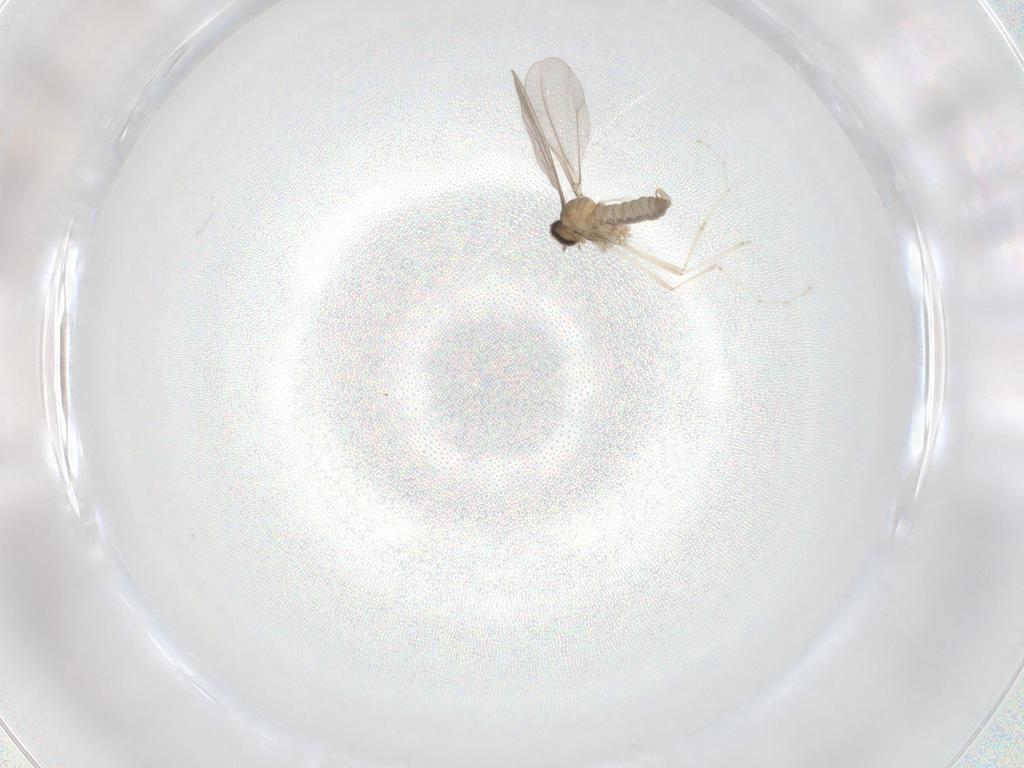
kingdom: Animalia
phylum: Arthropoda
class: Insecta
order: Diptera
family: Cecidomyiidae
